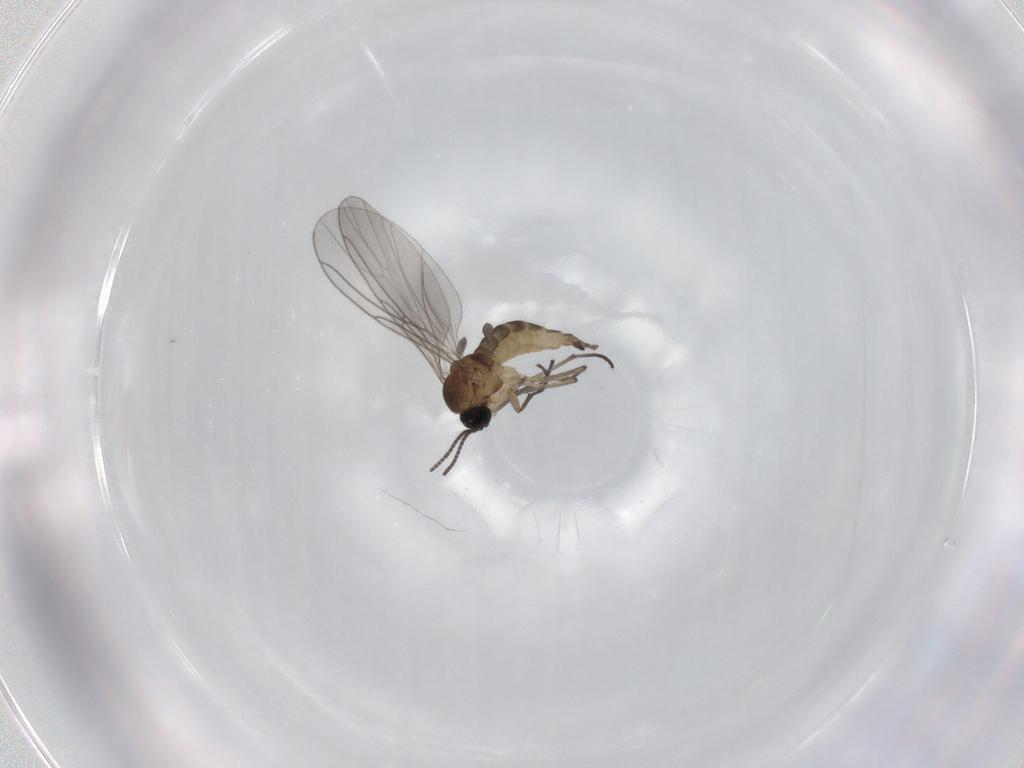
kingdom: Animalia
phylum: Arthropoda
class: Insecta
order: Diptera
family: Sciaridae
